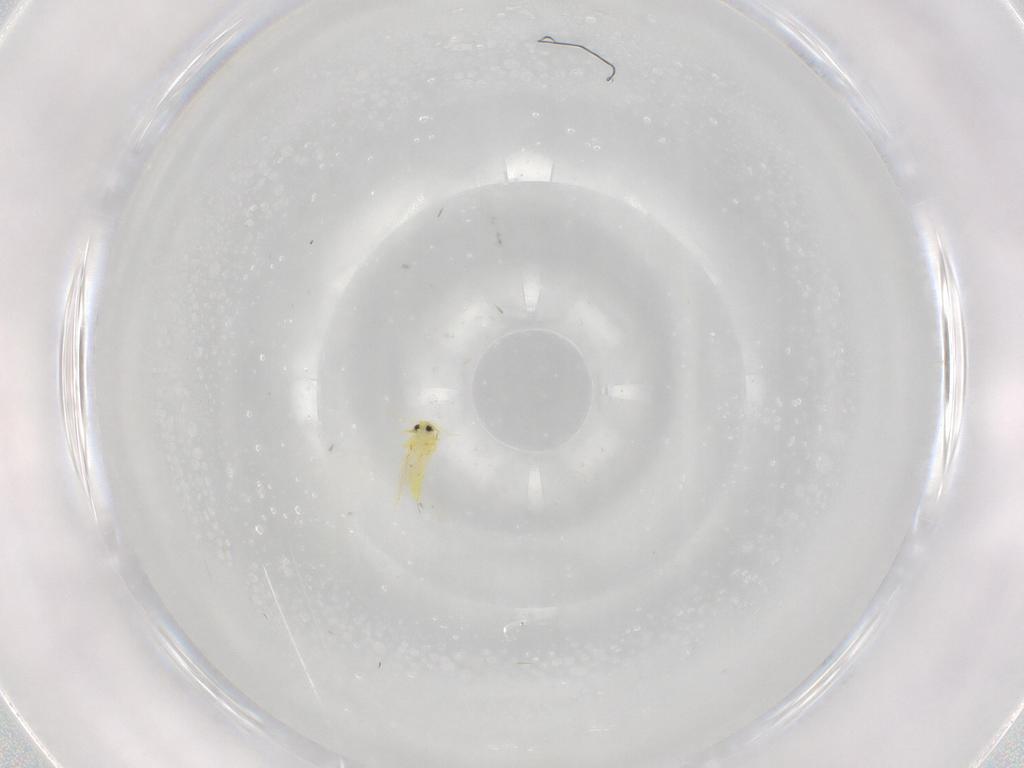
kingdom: Animalia
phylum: Arthropoda
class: Insecta
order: Hemiptera
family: Aleyrodidae
